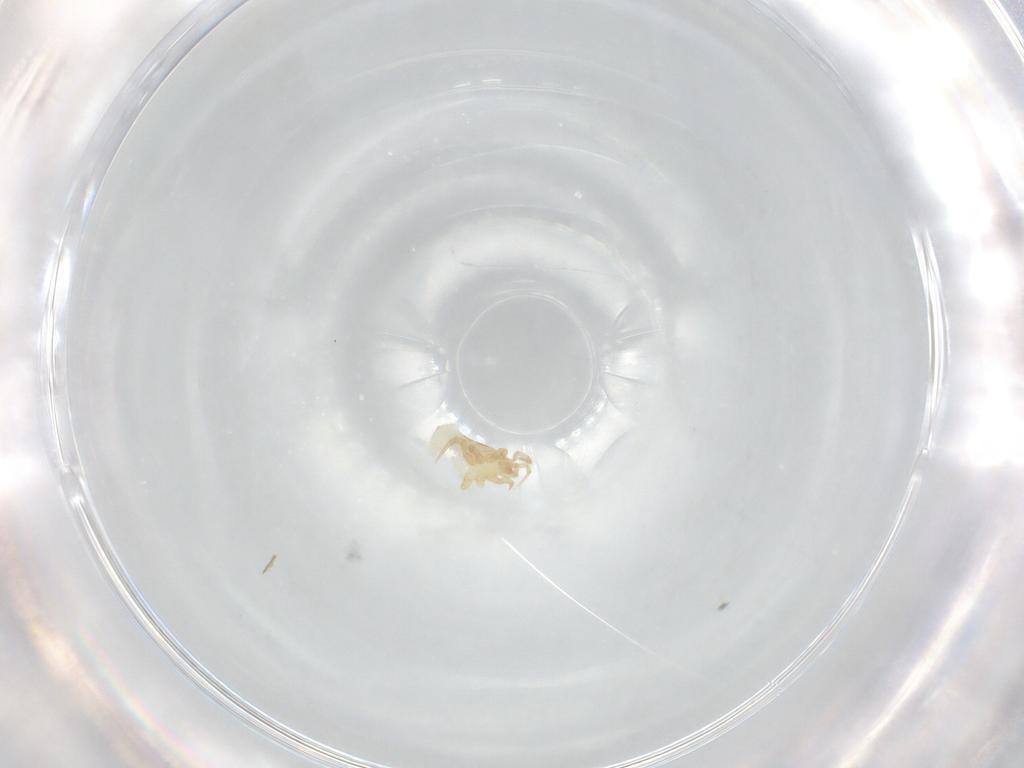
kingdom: Animalia
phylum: Arthropoda
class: Arachnida
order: Mesostigmata
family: Parasitidae
